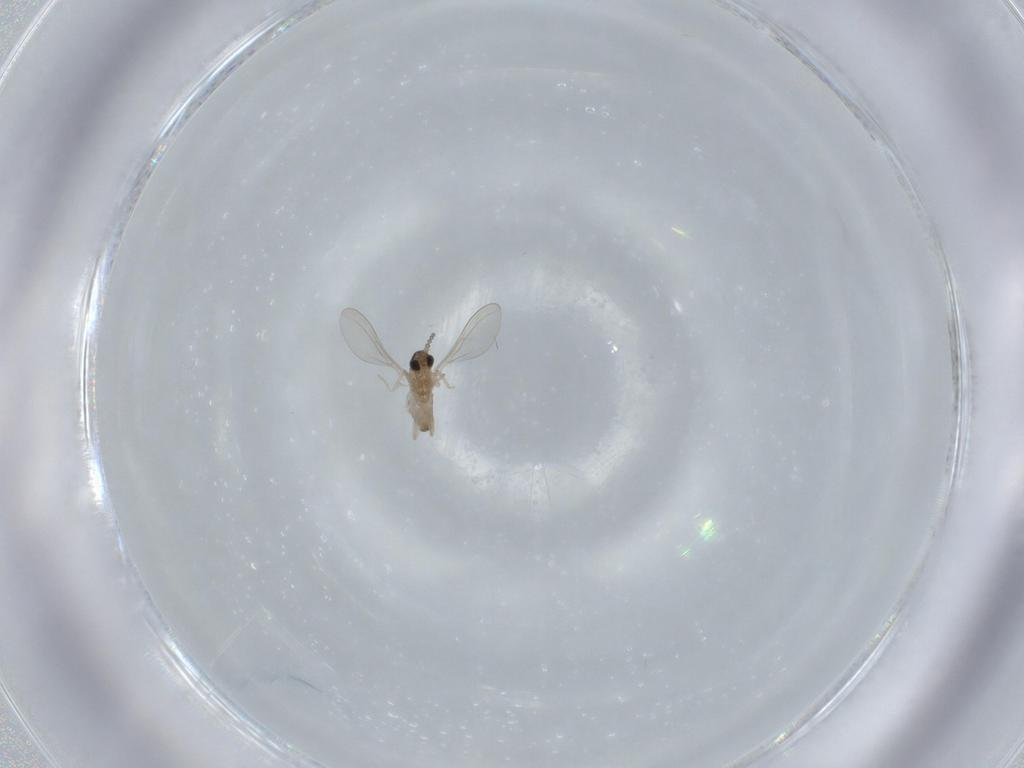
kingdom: Animalia
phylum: Arthropoda
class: Insecta
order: Diptera
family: Cecidomyiidae
